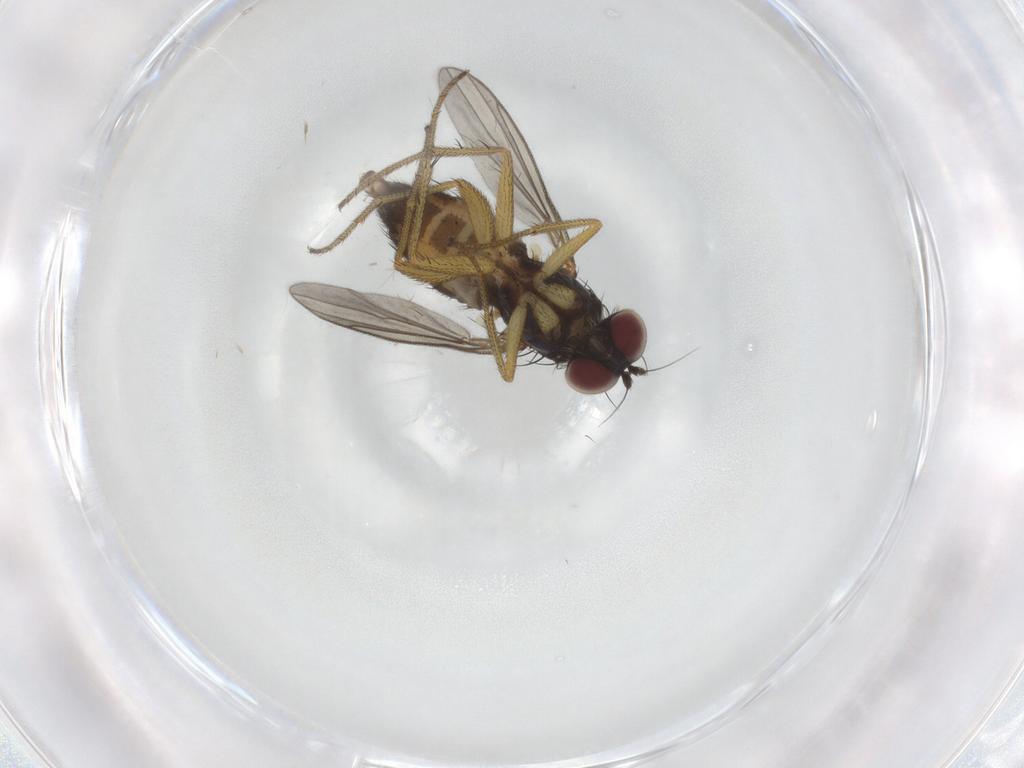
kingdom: Animalia
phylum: Arthropoda
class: Insecta
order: Diptera
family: Dolichopodidae
